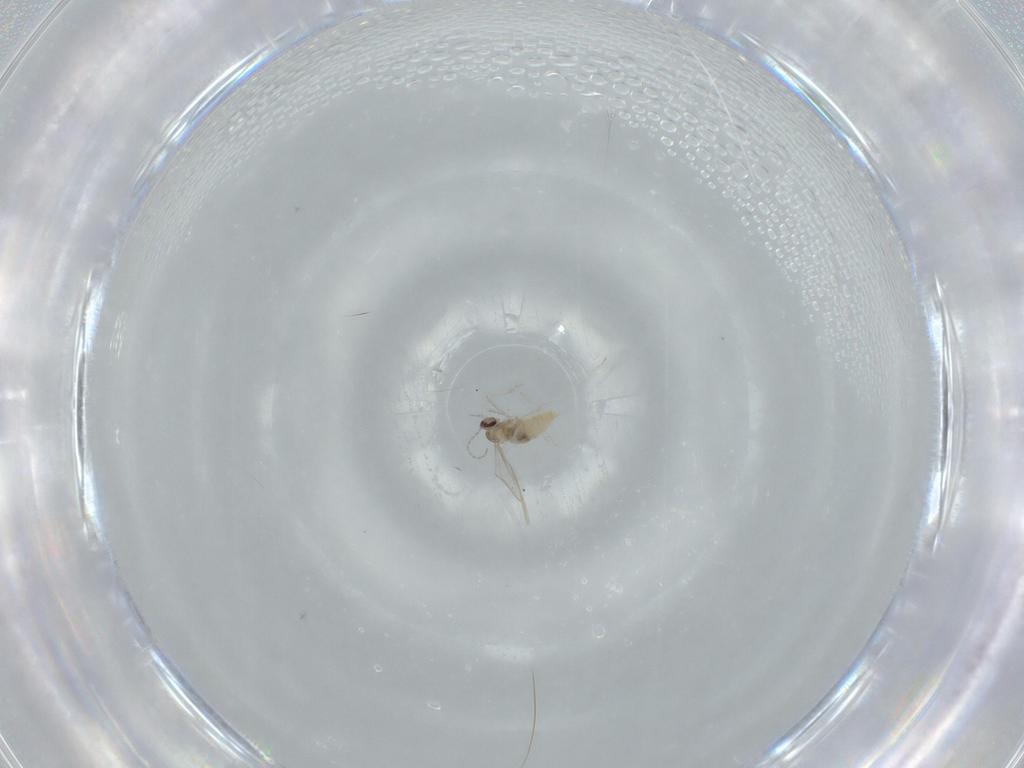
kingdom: Animalia
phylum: Arthropoda
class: Insecta
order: Diptera
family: Cecidomyiidae
